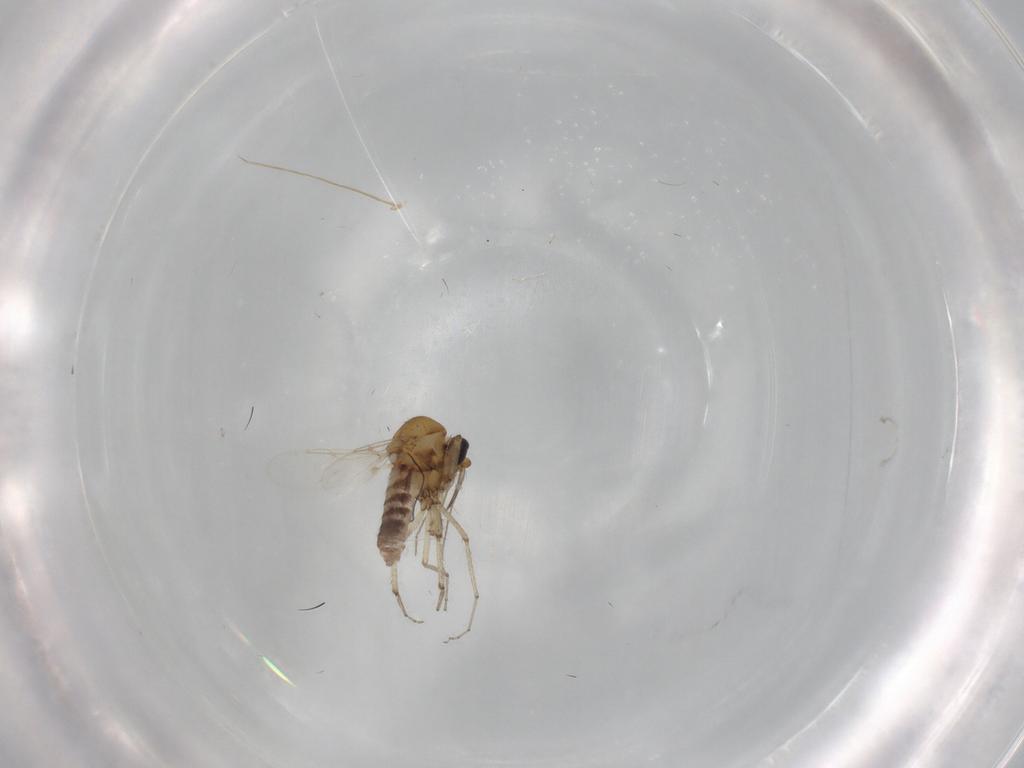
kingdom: Animalia
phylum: Arthropoda
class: Insecta
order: Diptera
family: Ceratopogonidae
